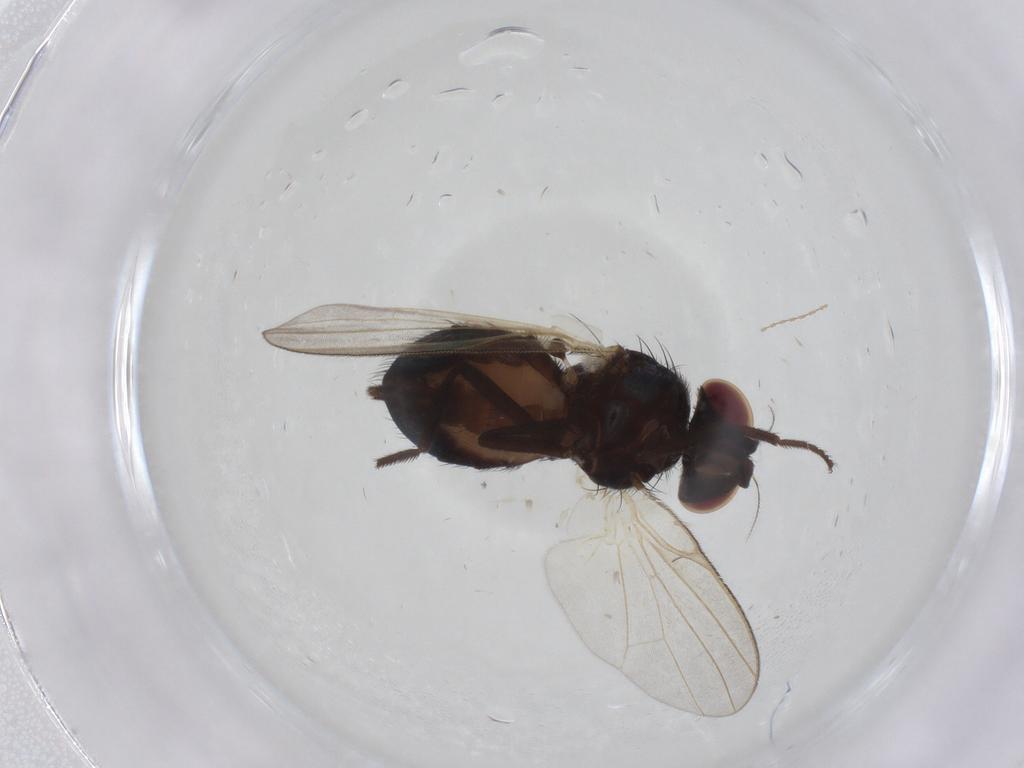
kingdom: Animalia
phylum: Arthropoda
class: Insecta
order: Diptera
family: Lonchaeidae
